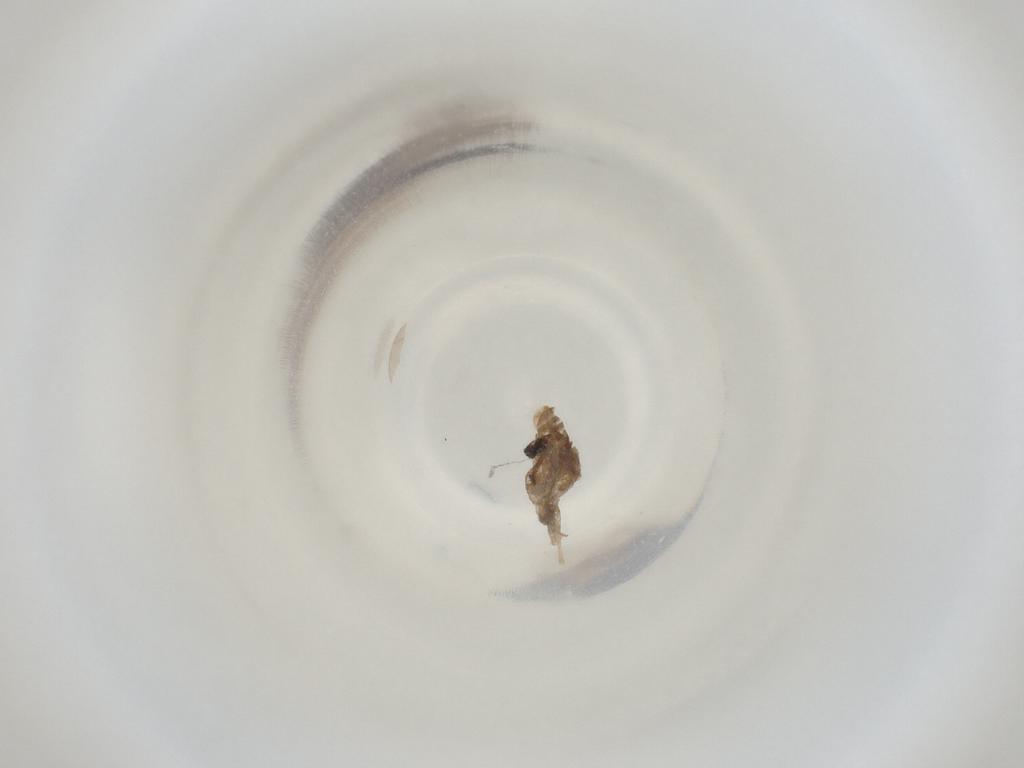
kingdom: Animalia
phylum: Arthropoda
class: Insecta
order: Diptera
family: Cecidomyiidae
